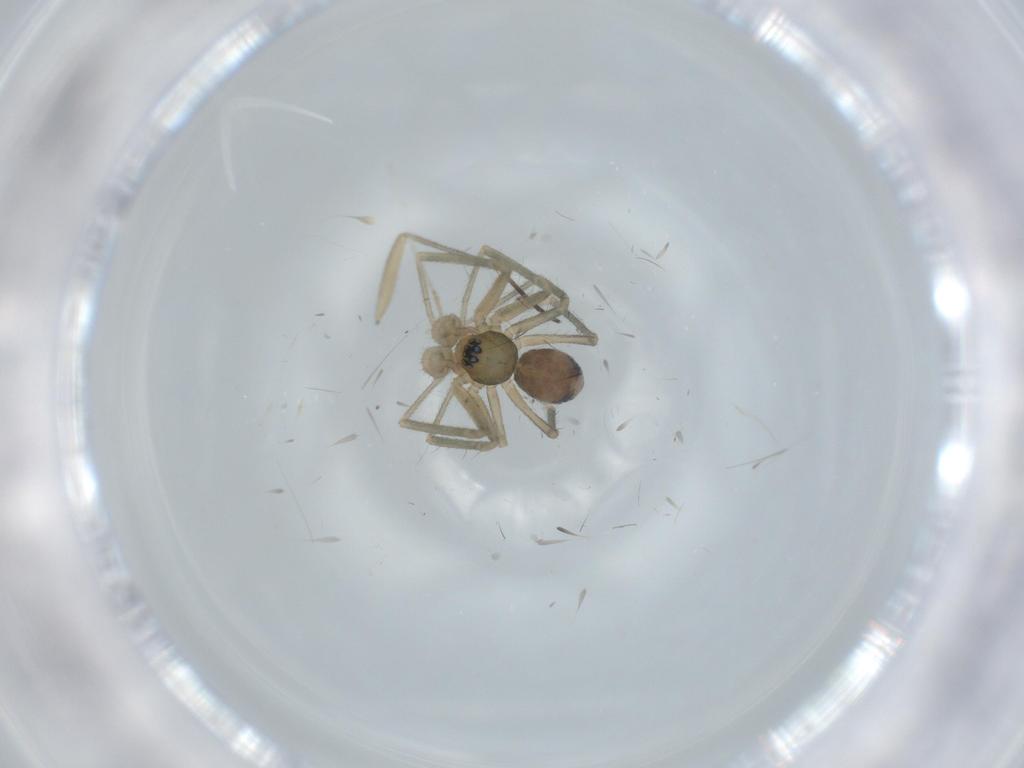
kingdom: Animalia
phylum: Arthropoda
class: Arachnida
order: Araneae
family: Linyphiidae
